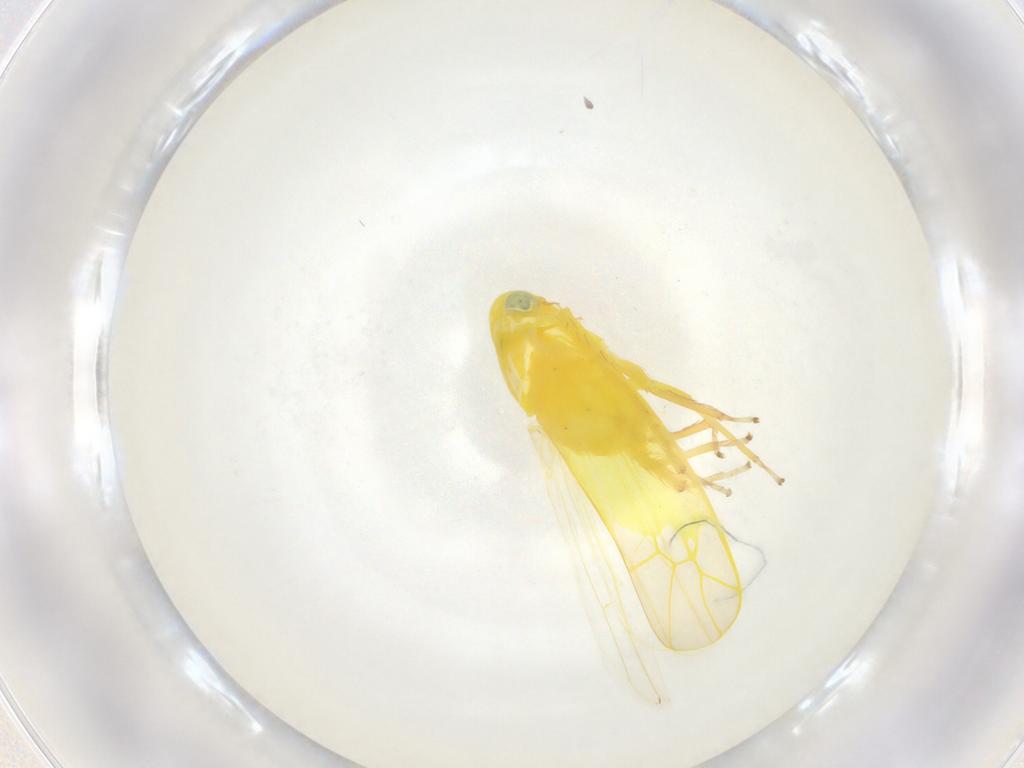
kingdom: Animalia
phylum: Arthropoda
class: Insecta
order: Hemiptera
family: Cicadellidae
